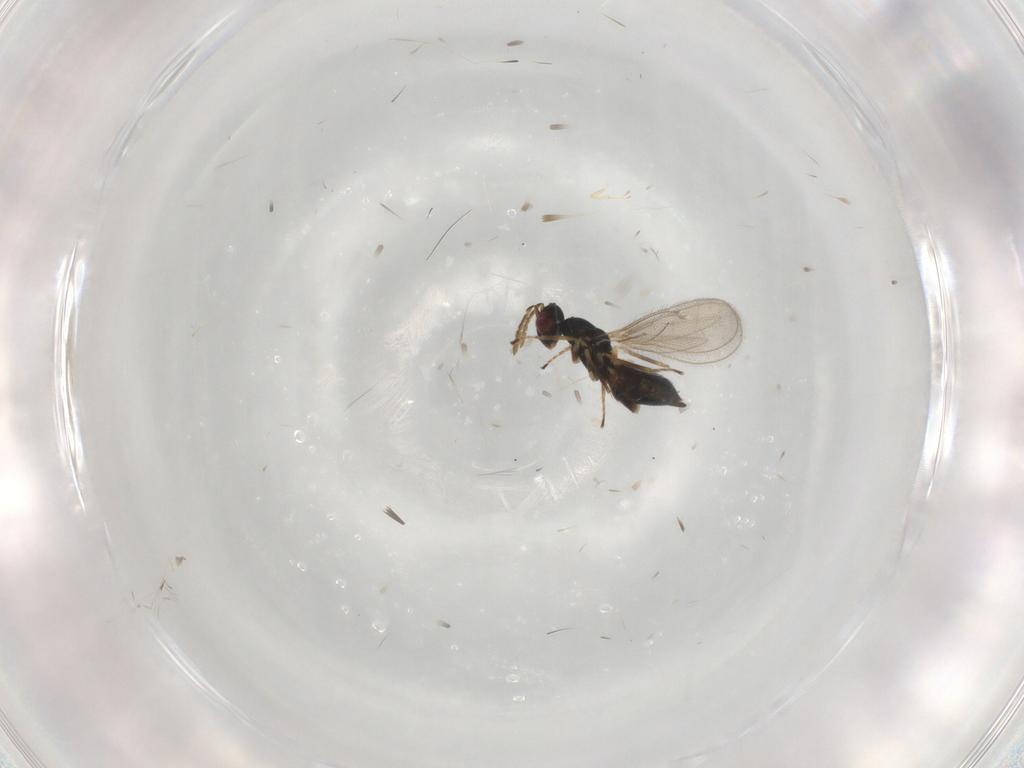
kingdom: Animalia
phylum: Arthropoda
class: Insecta
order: Hymenoptera
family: Eulophidae
